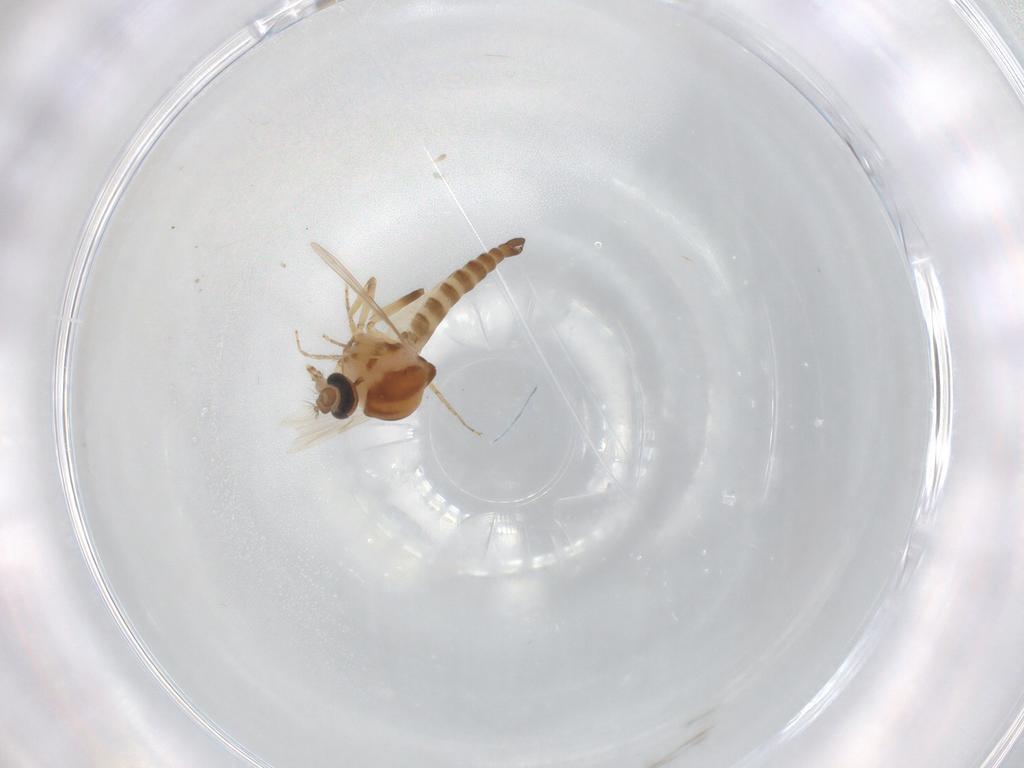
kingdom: Animalia
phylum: Arthropoda
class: Insecta
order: Diptera
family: Ceratopogonidae
